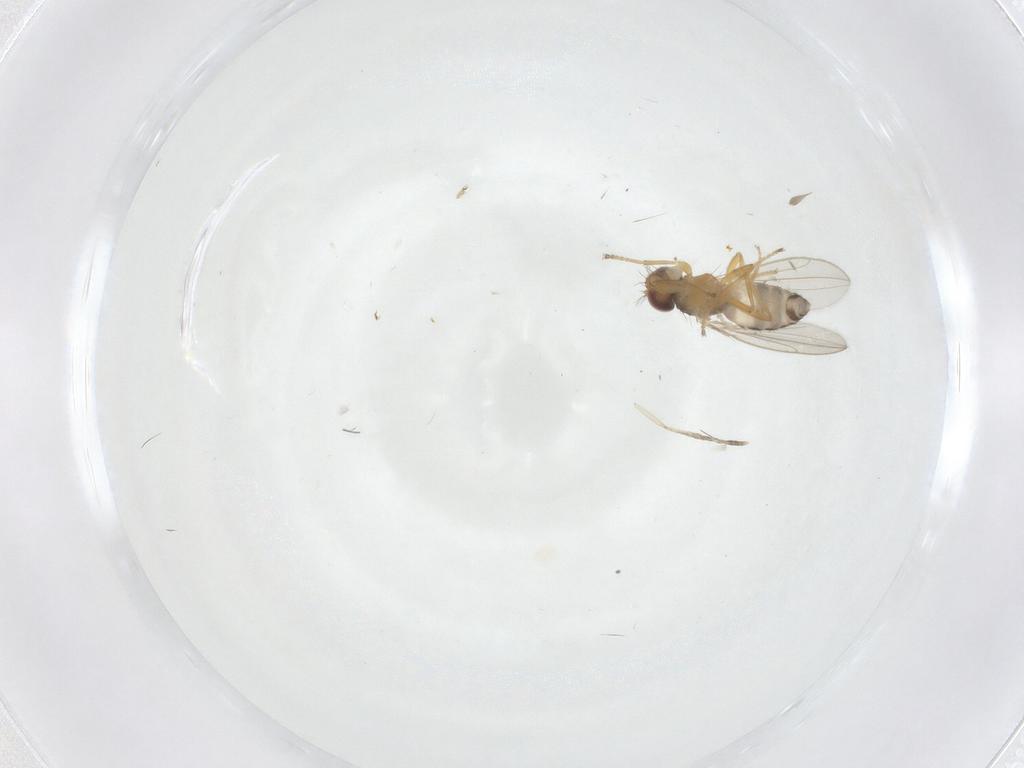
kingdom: Animalia
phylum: Arthropoda
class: Insecta
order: Diptera
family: Periscelididae
